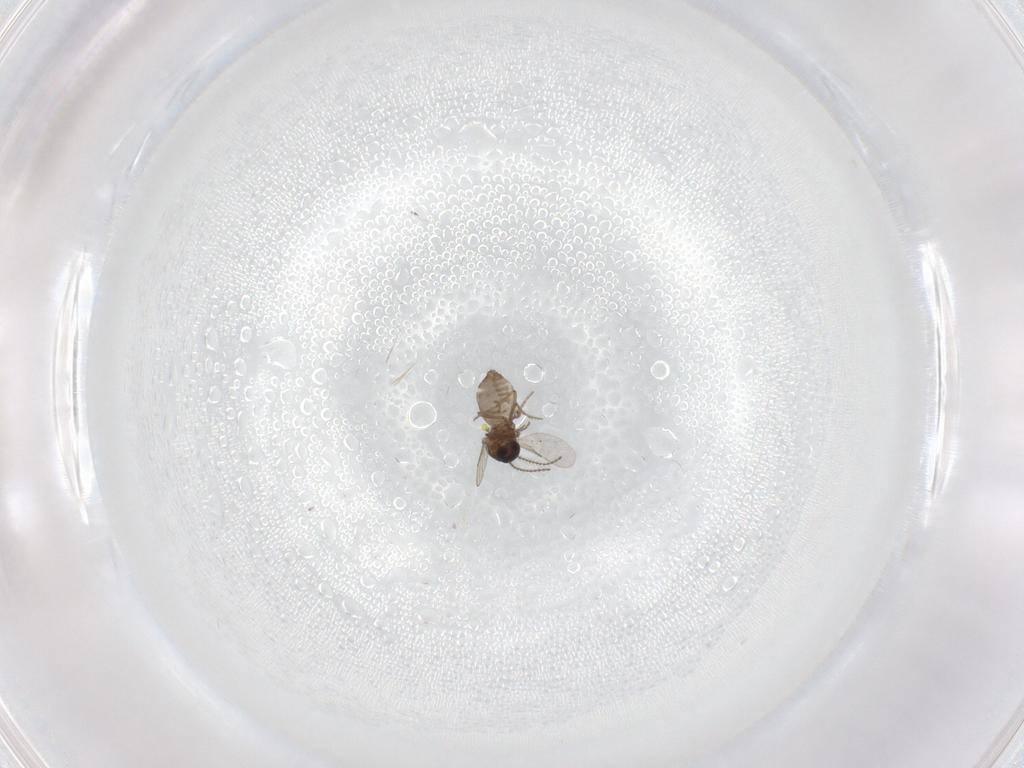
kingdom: Animalia
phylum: Arthropoda
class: Insecta
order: Diptera
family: Ceratopogonidae
